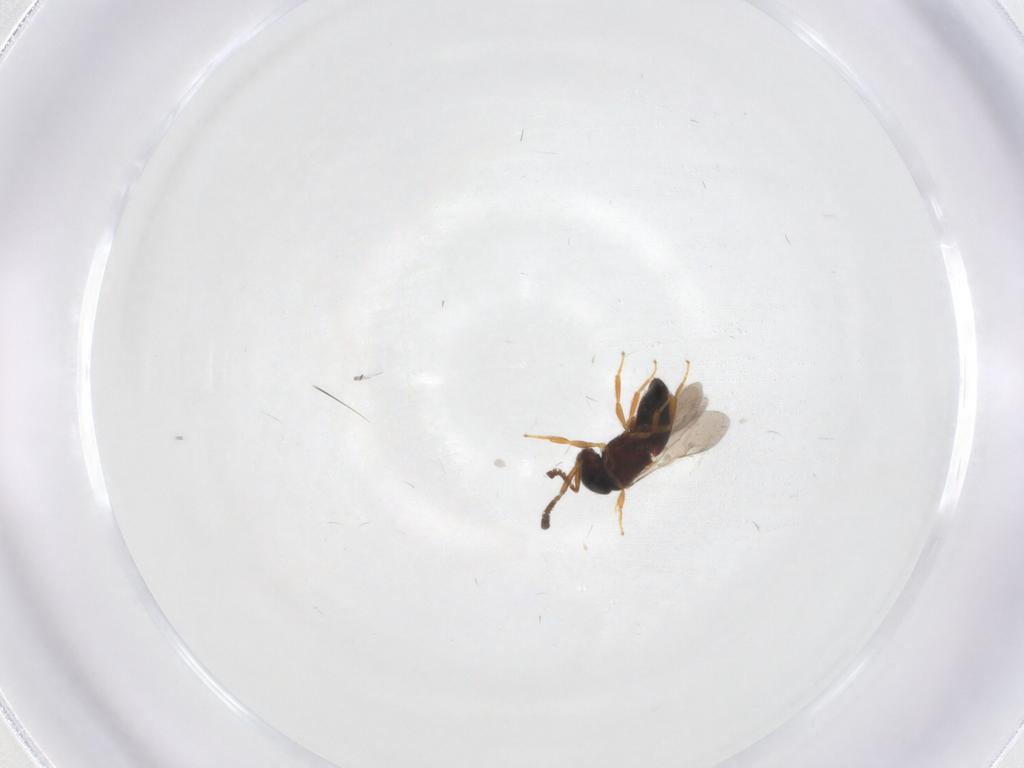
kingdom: Animalia
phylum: Arthropoda
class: Insecta
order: Hymenoptera
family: Scelionidae
